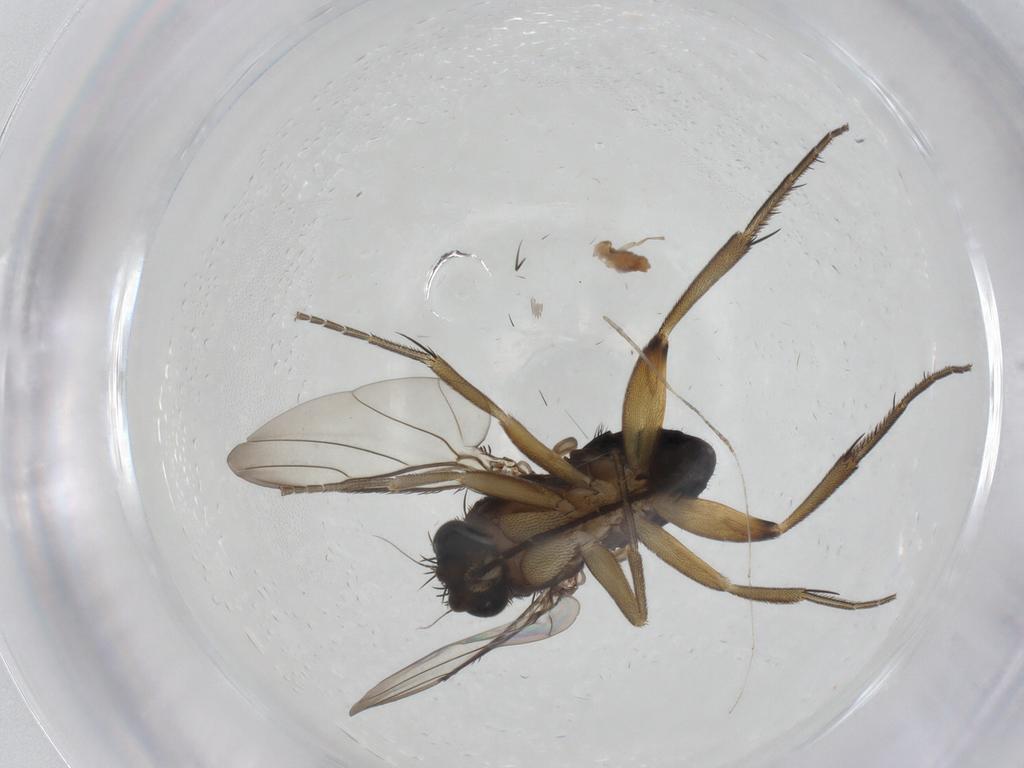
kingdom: Animalia
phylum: Arthropoda
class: Insecta
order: Diptera
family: Phoridae
